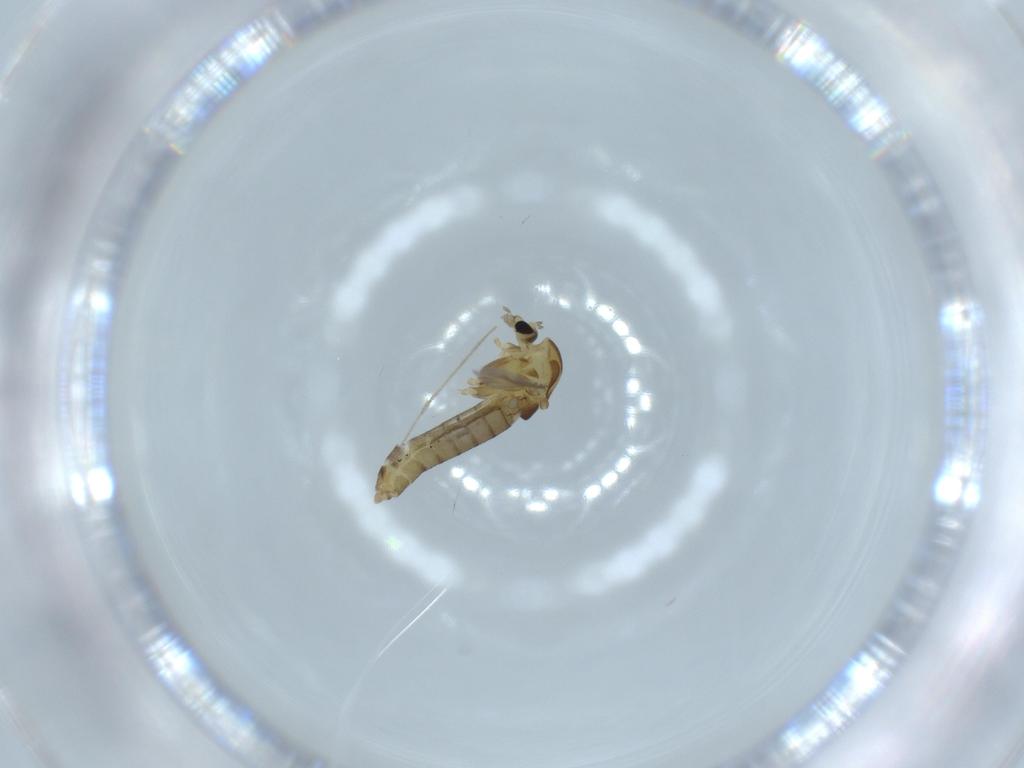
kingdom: Animalia
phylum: Arthropoda
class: Insecta
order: Diptera
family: Chironomidae
